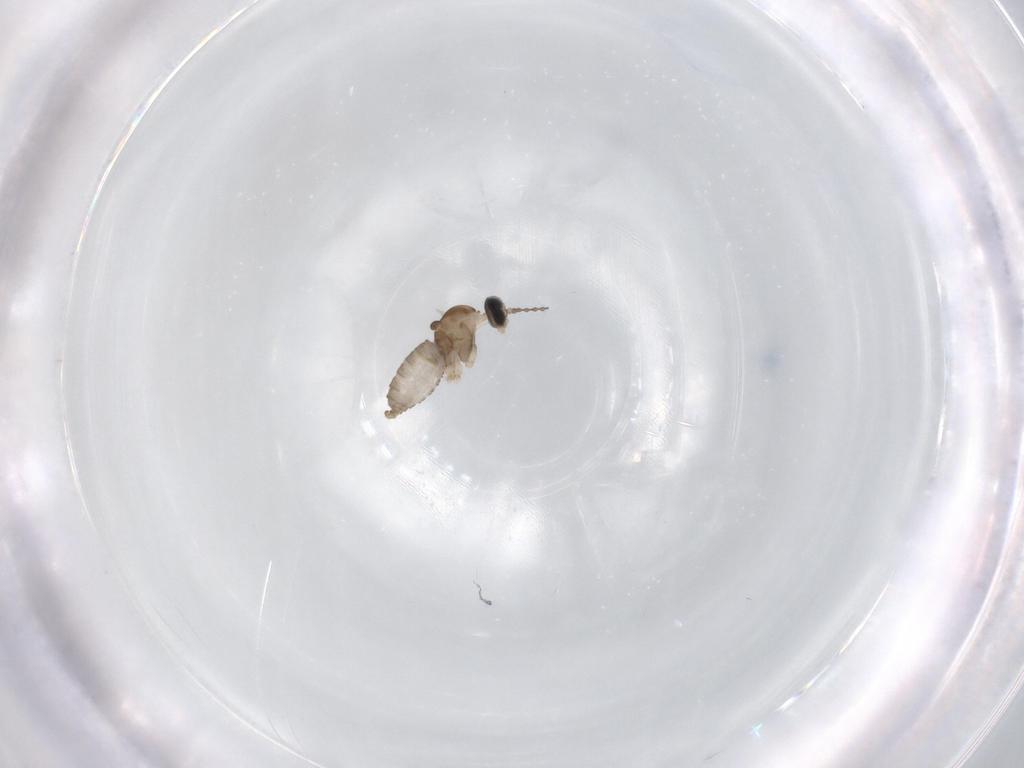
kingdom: Animalia
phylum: Arthropoda
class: Insecta
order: Diptera
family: Cecidomyiidae
